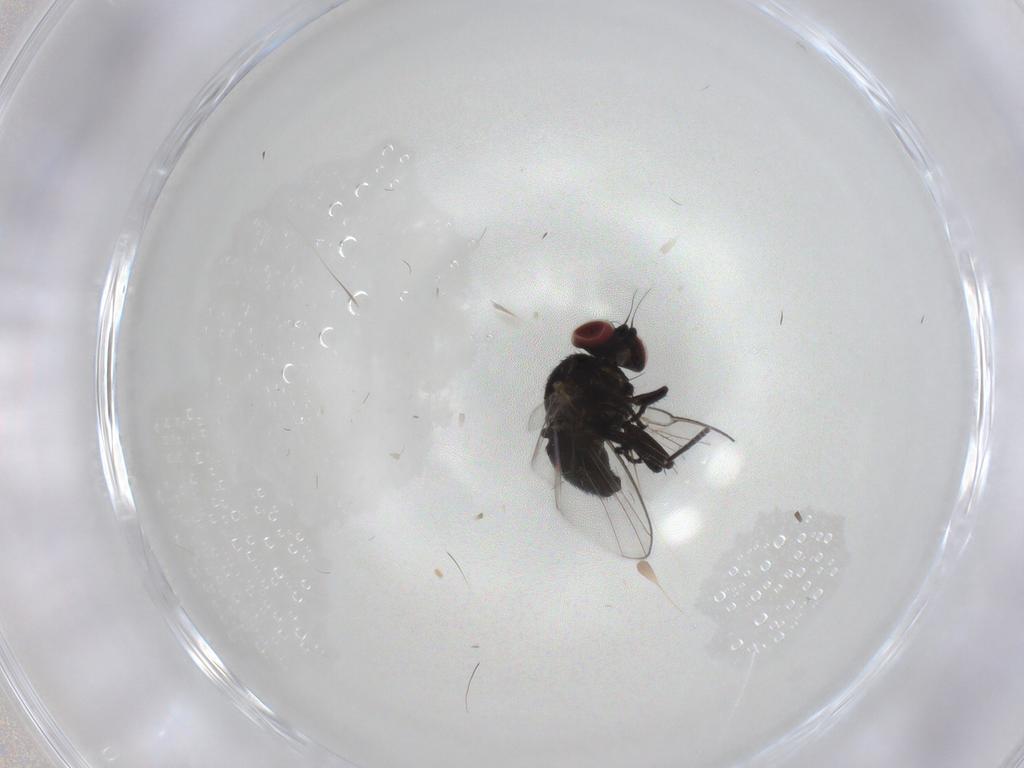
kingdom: Animalia
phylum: Arthropoda
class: Insecta
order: Diptera
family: Agromyzidae
